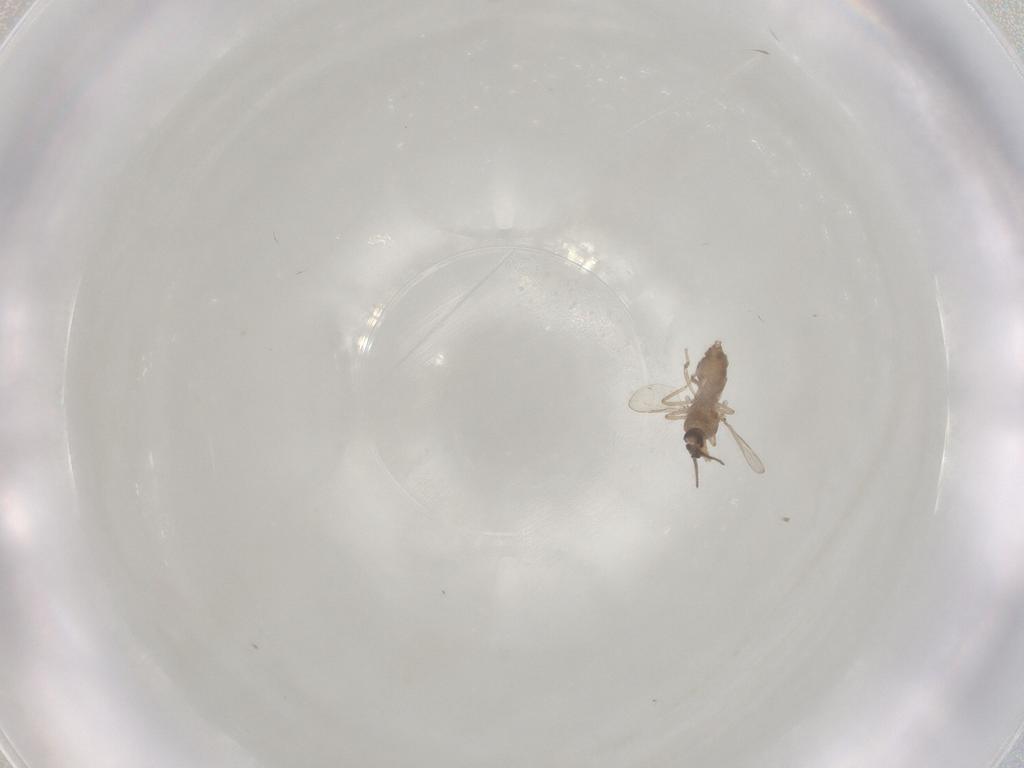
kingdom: Animalia
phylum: Arthropoda
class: Insecta
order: Diptera
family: Ceratopogonidae
